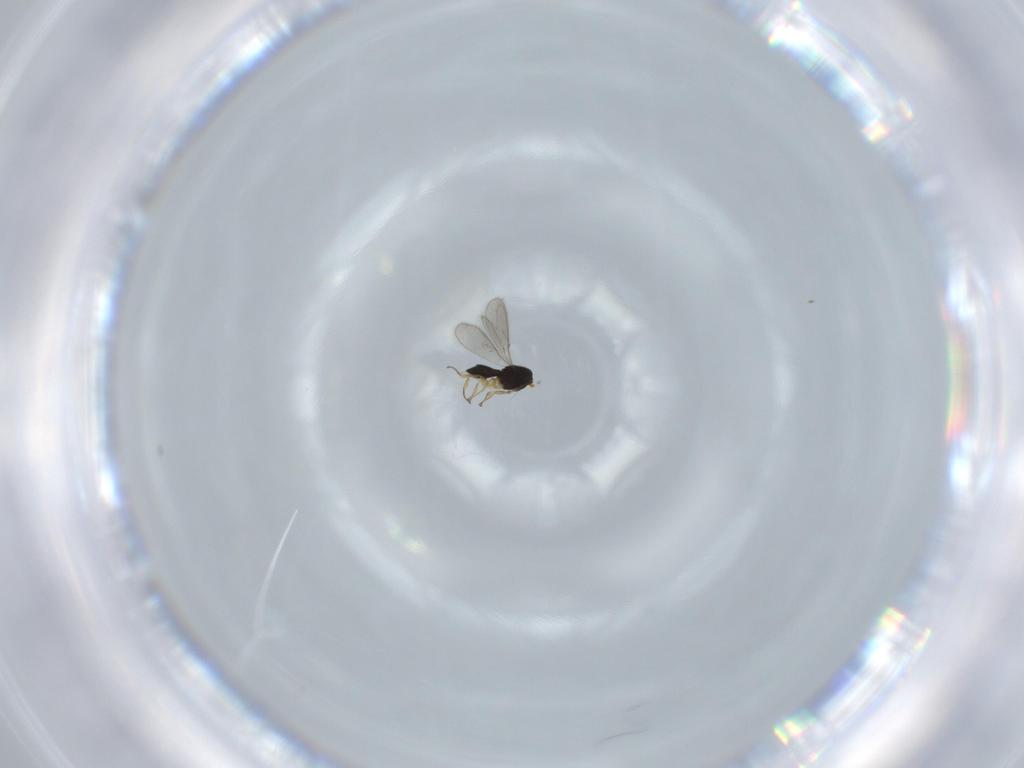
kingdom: Animalia
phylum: Arthropoda
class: Insecta
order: Hymenoptera
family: Scelionidae
